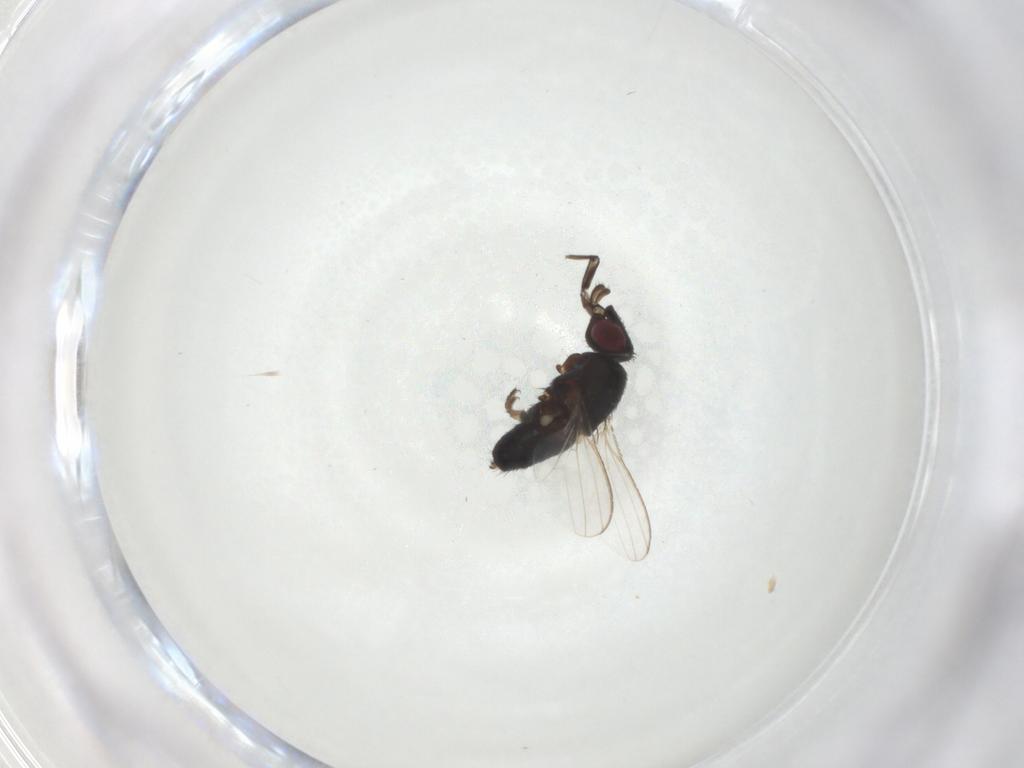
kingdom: Animalia
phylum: Arthropoda
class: Insecta
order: Diptera
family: Milichiidae
